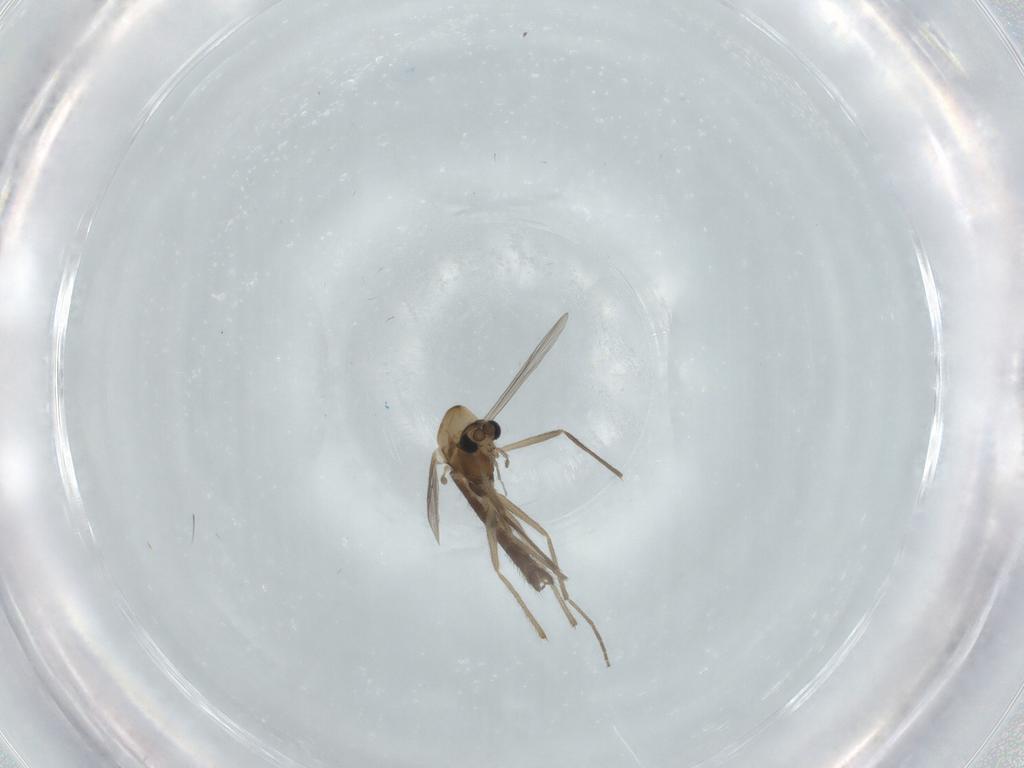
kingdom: Animalia
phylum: Arthropoda
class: Insecta
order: Diptera
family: Chironomidae
